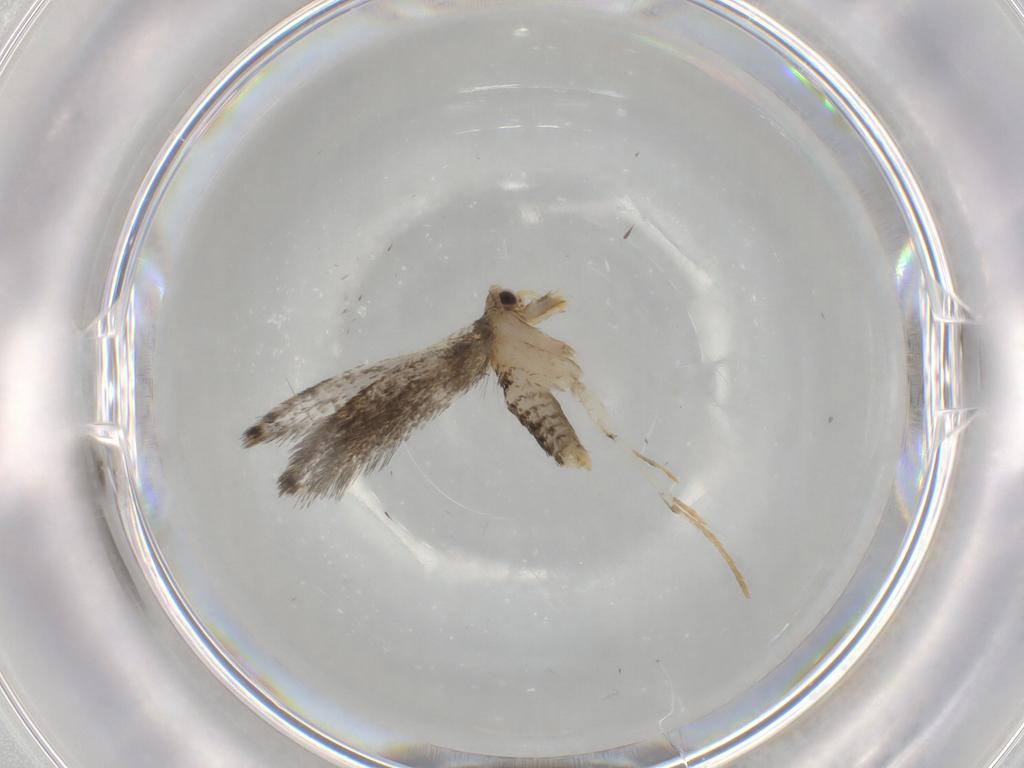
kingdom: Animalia
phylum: Arthropoda
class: Insecta
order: Lepidoptera
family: Tineidae
